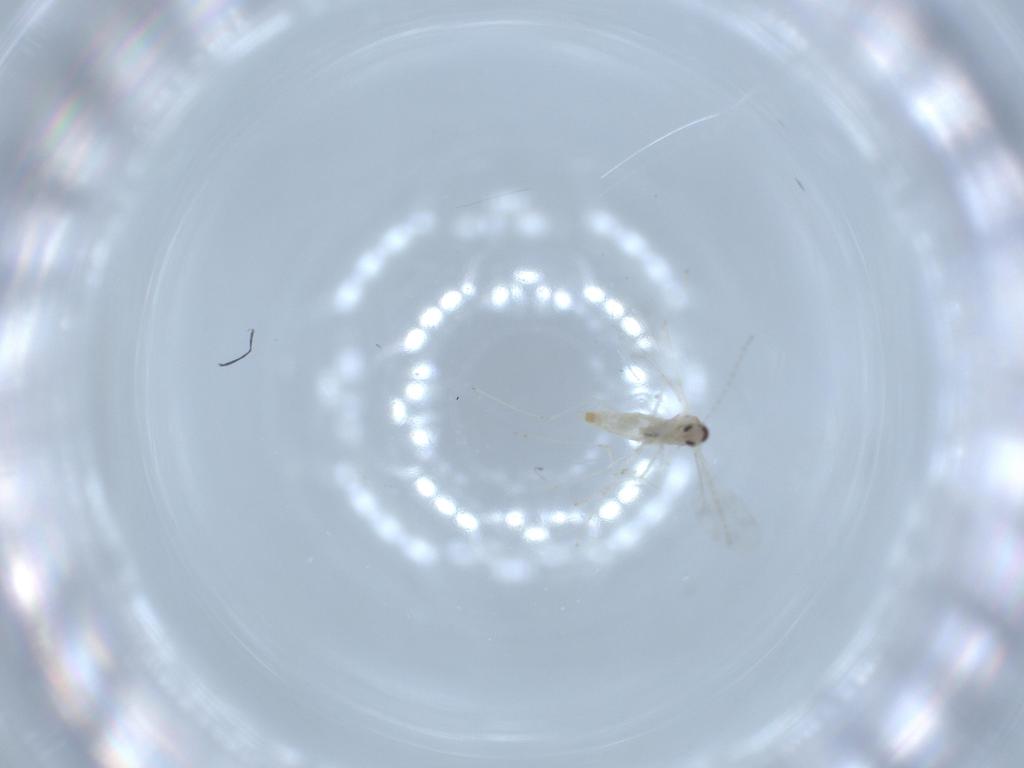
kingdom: Animalia
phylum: Arthropoda
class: Insecta
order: Diptera
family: Cecidomyiidae
